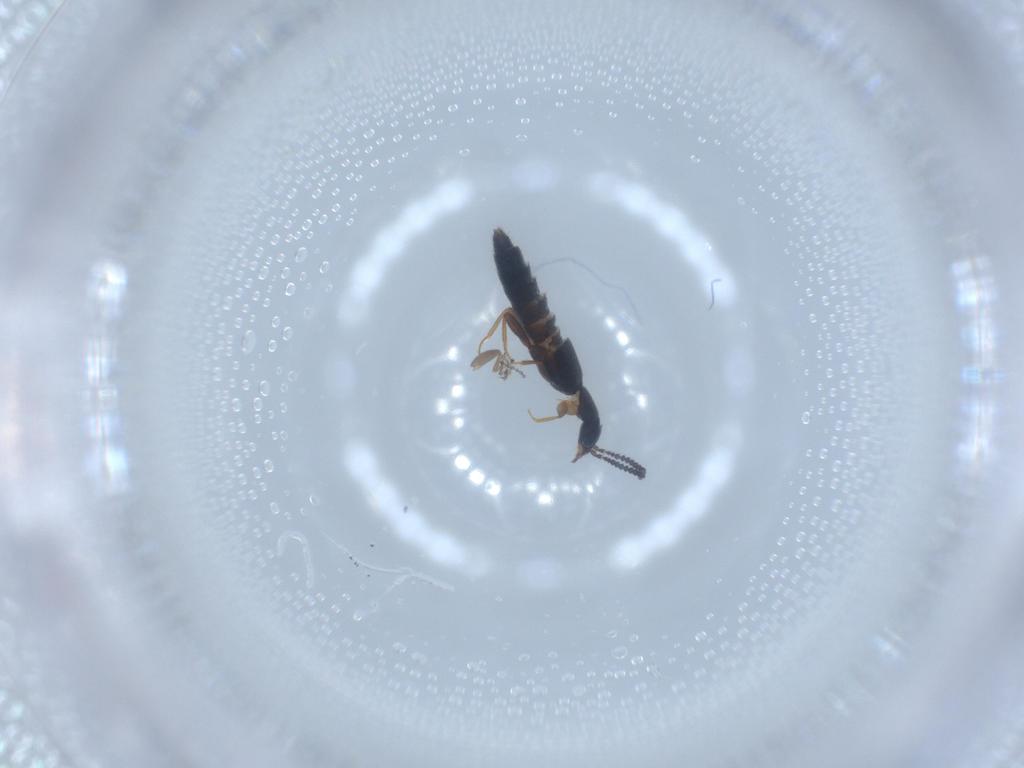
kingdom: Animalia
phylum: Arthropoda
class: Insecta
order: Coleoptera
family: Staphylinidae
